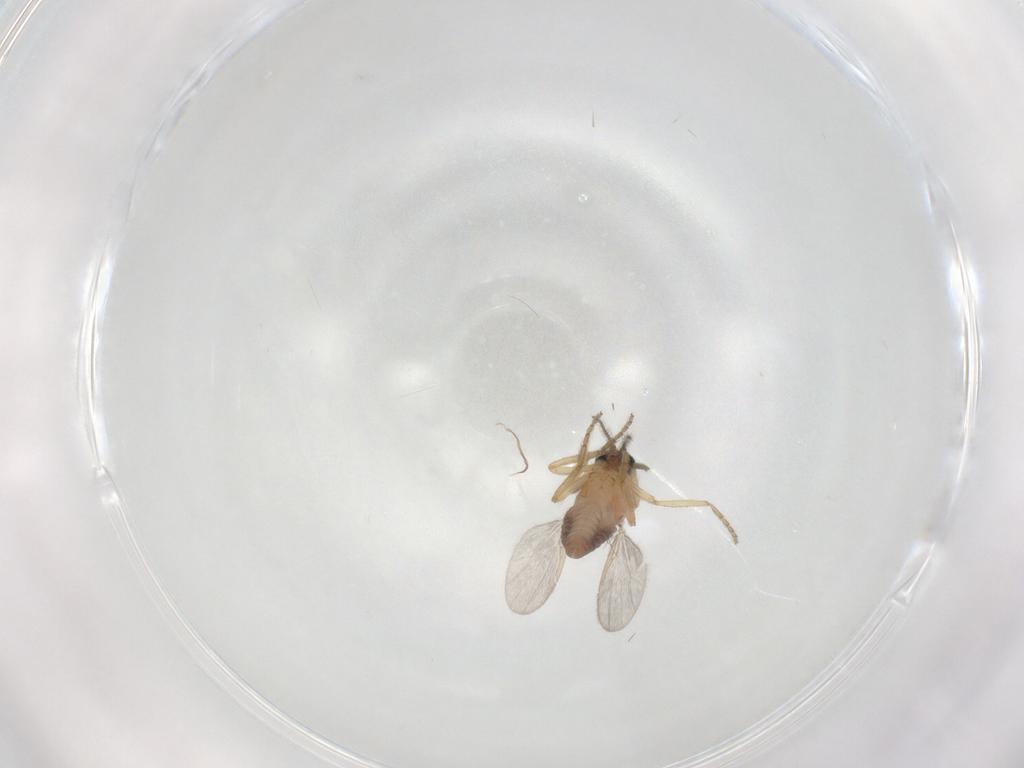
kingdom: Animalia
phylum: Arthropoda
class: Insecta
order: Diptera
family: Ceratopogonidae
